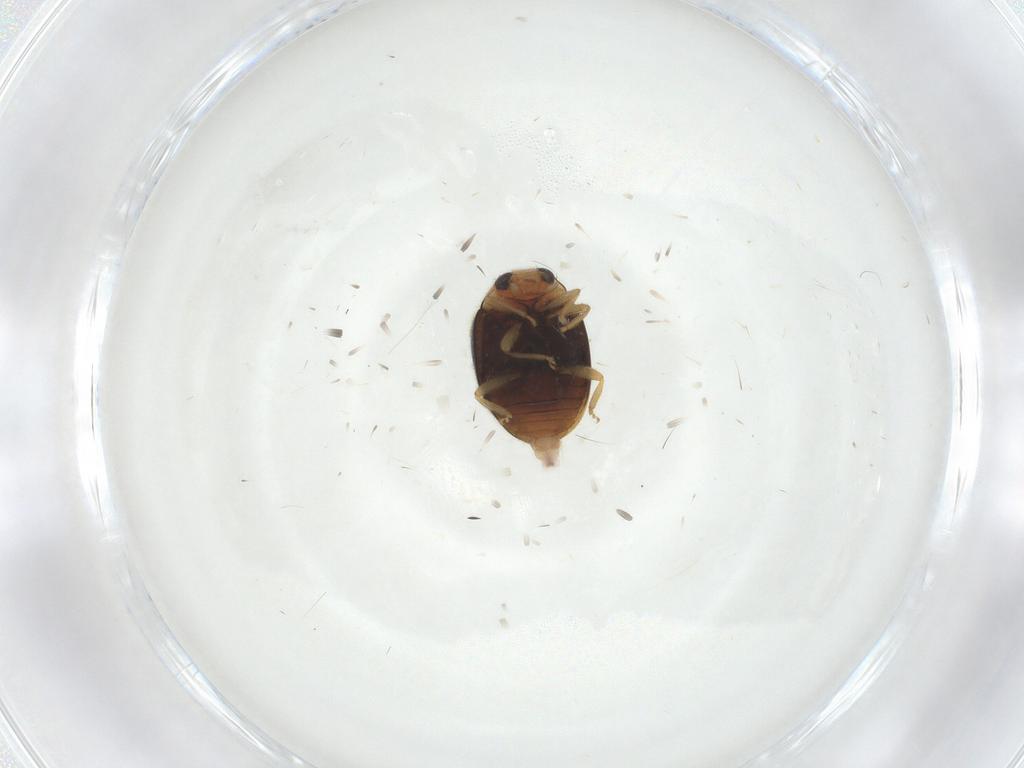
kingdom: Animalia
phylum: Arthropoda
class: Insecta
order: Coleoptera
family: Coccinellidae
